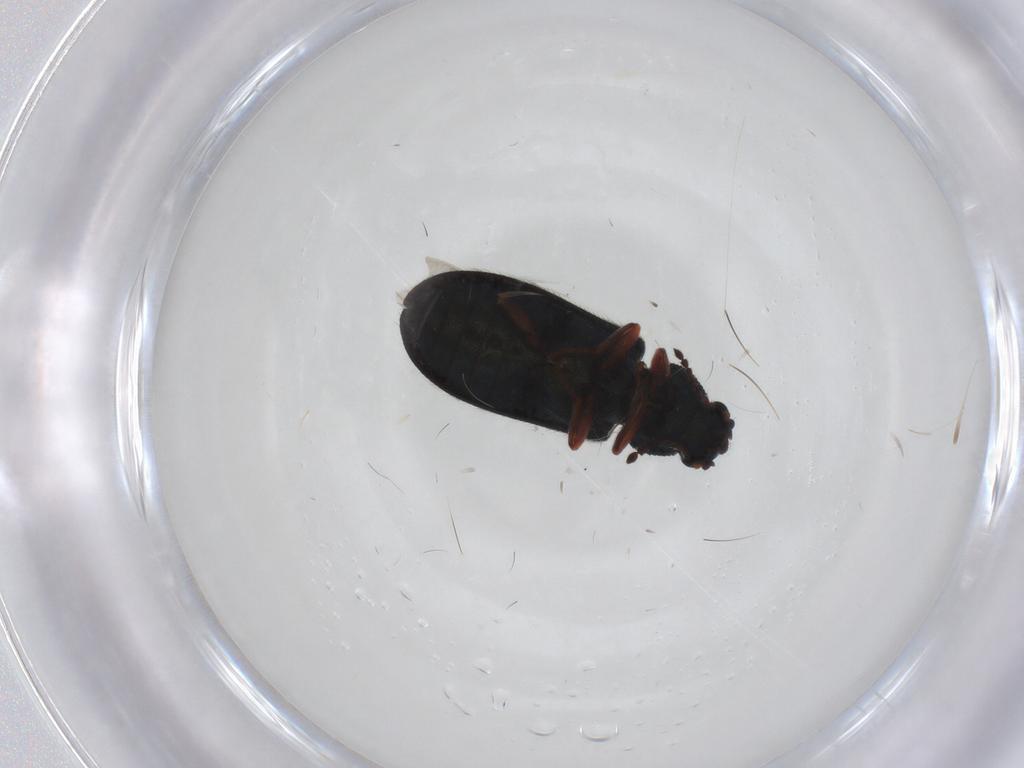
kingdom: Animalia
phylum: Arthropoda
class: Insecta
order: Coleoptera
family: Melyridae
